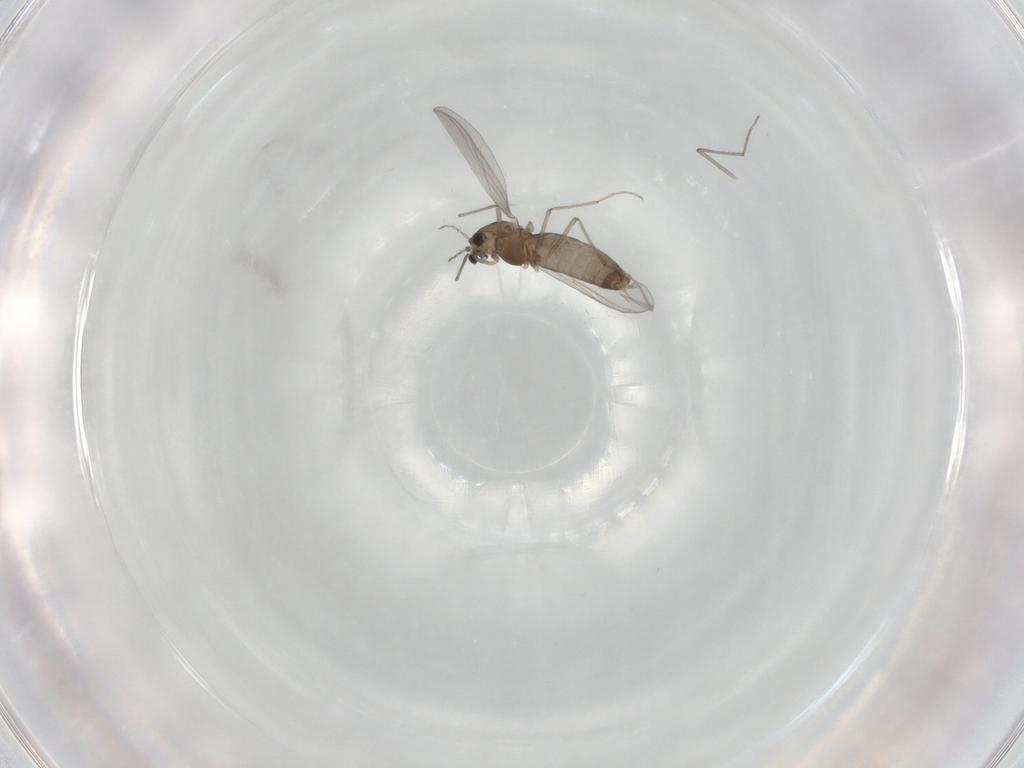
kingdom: Animalia
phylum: Arthropoda
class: Insecta
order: Diptera
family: Chironomidae
